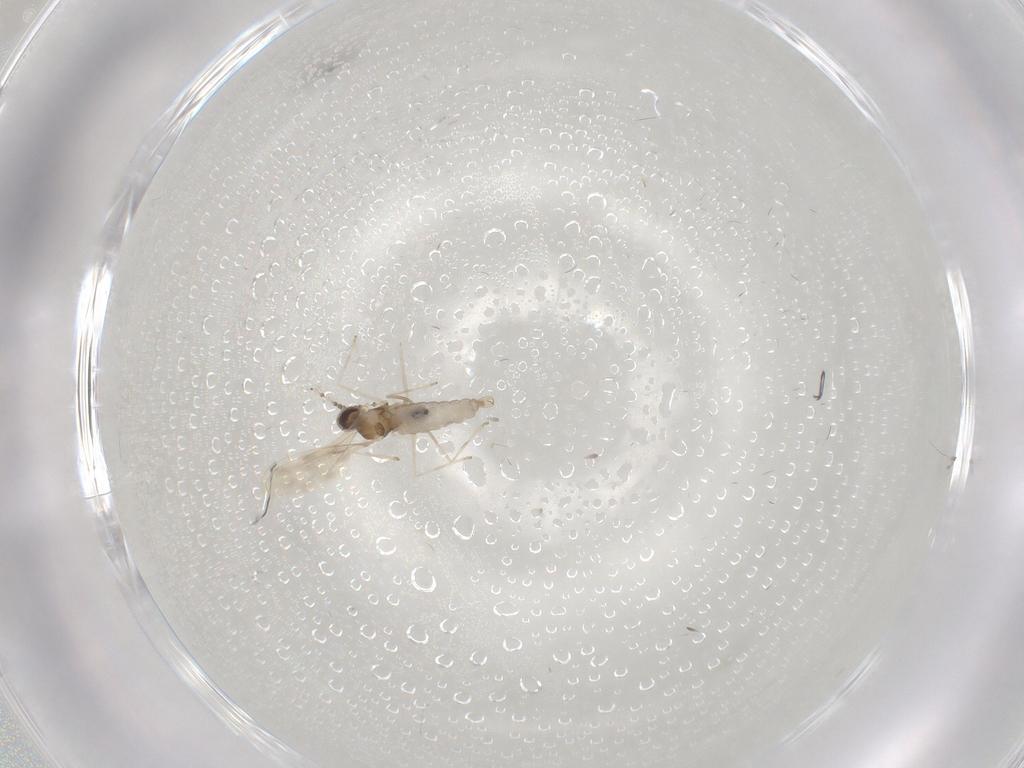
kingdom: Animalia
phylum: Arthropoda
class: Insecta
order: Diptera
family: Cecidomyiidae
